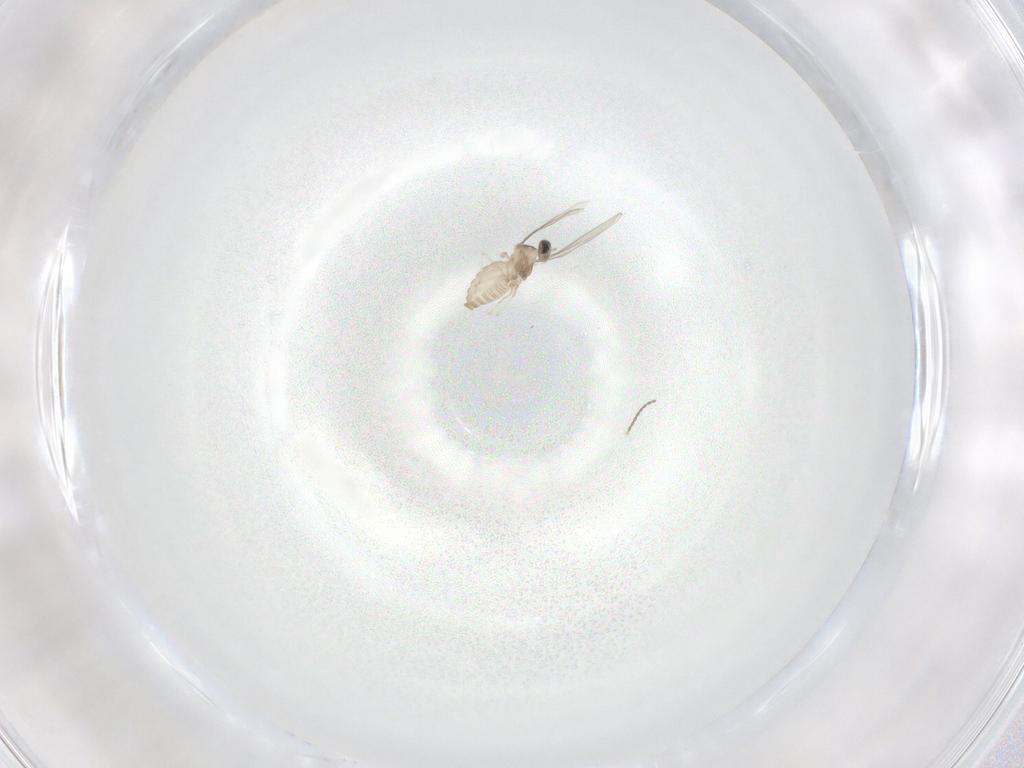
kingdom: Animalia
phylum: Arthropoda
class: Insecta
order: Diptera
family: Cecidomyiidae
